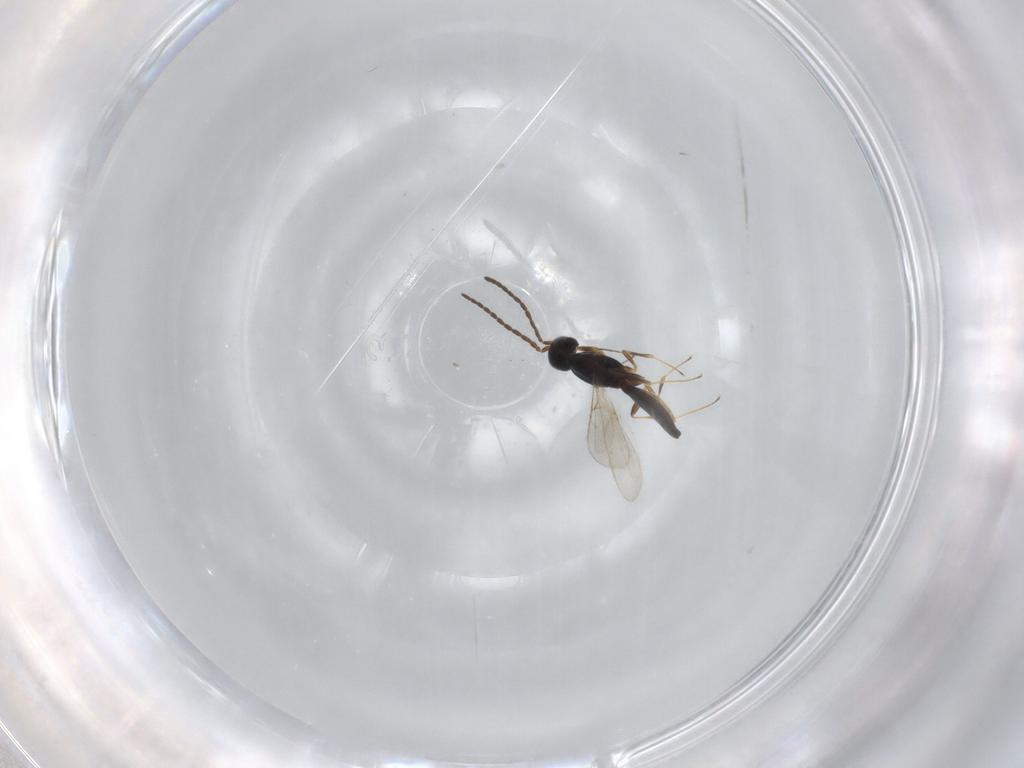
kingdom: Animalia
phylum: Arthropoda
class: Insecta
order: Hymenoptera
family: Scelionidae
